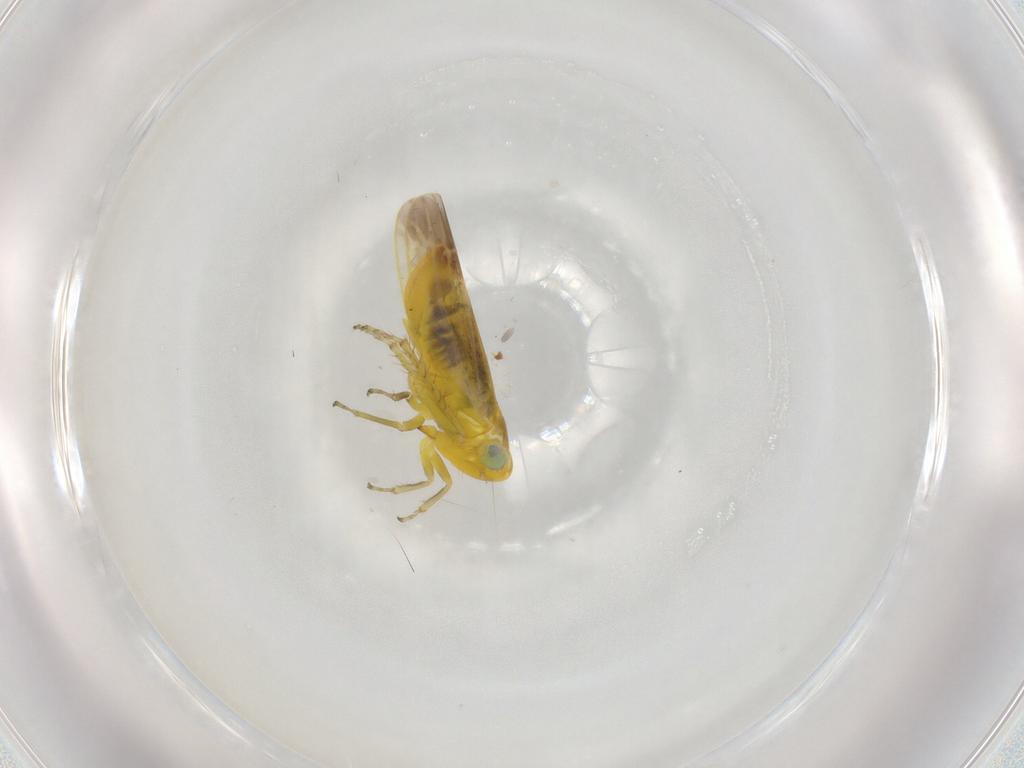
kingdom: Animalia
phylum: Arthropoda
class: Insecta
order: Hemiptera
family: Cicadellidae
